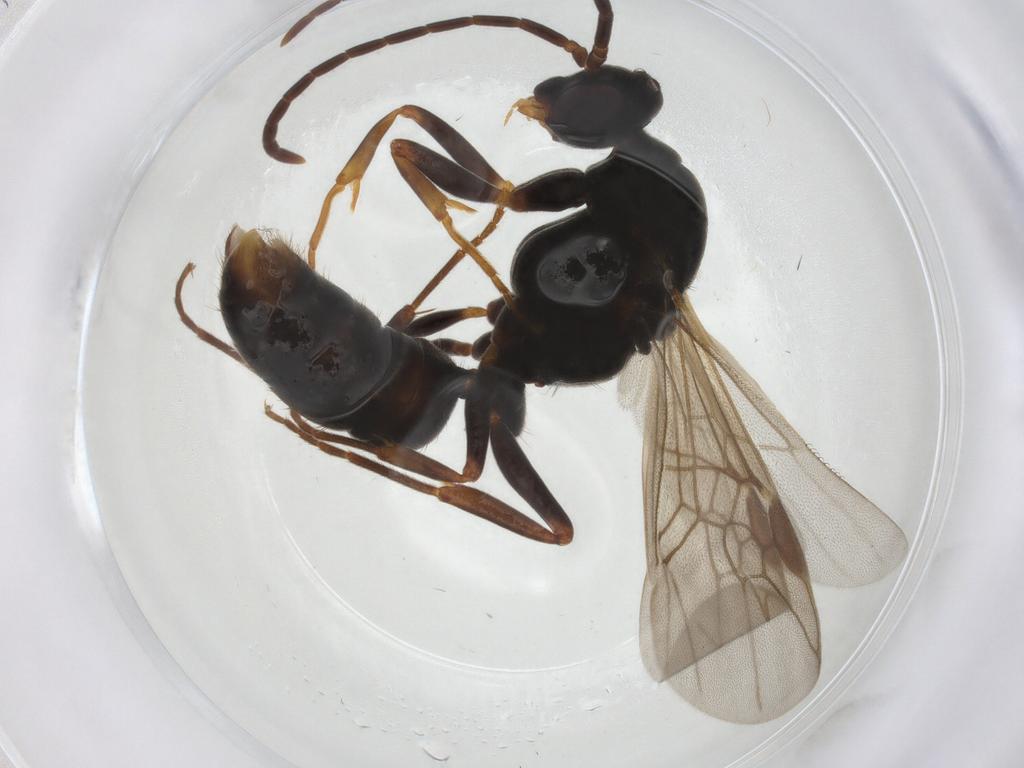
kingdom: Animalia
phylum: Arthropoda
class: Insecta
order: Hymenoptera
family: Formicidae
